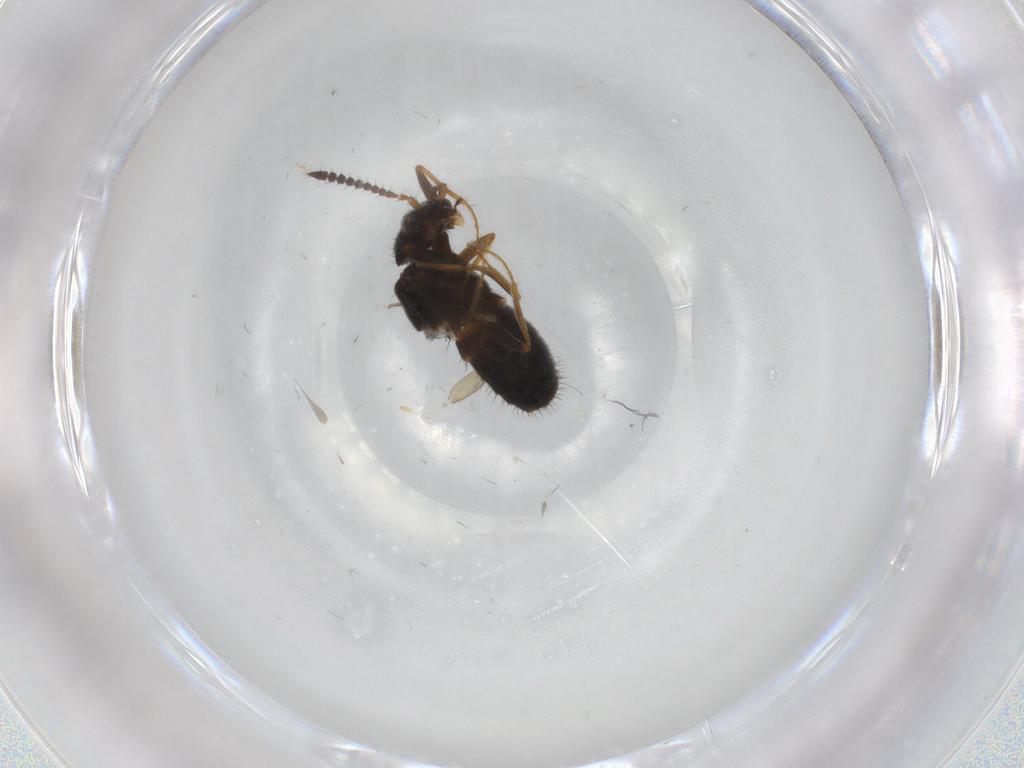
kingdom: Animalia
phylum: Arthropoda
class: Insecta
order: Coleoptera
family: Staphylinidae
